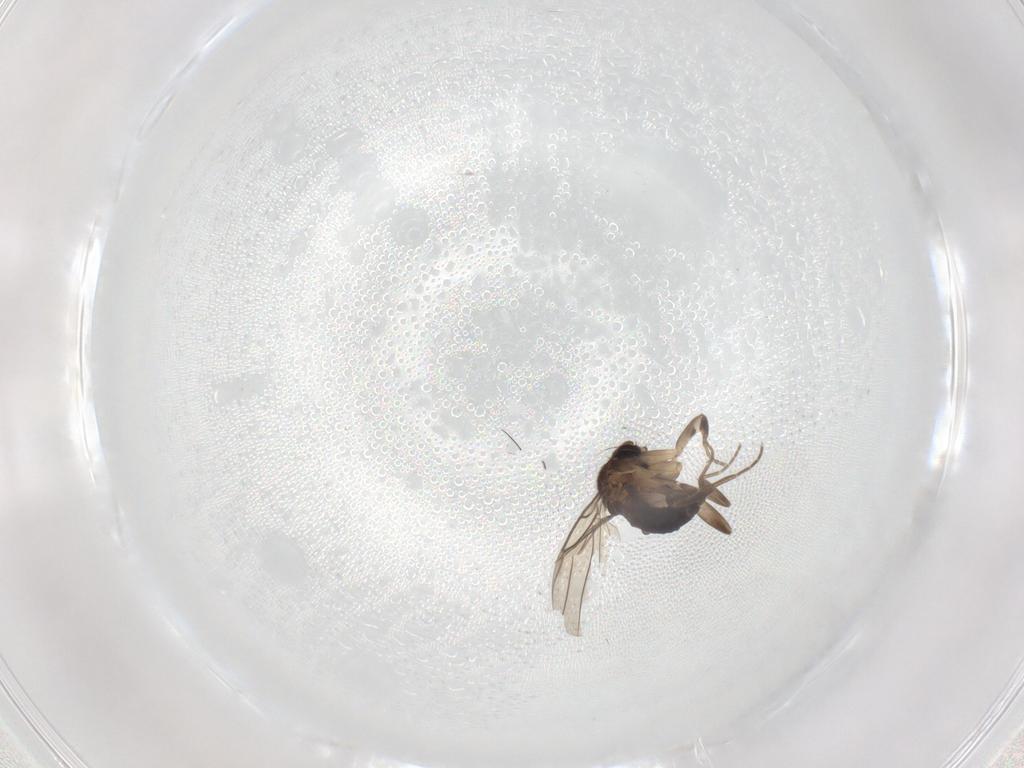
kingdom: Animalia
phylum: Arthropoda
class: Insecta
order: Diptera
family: Phoridae
